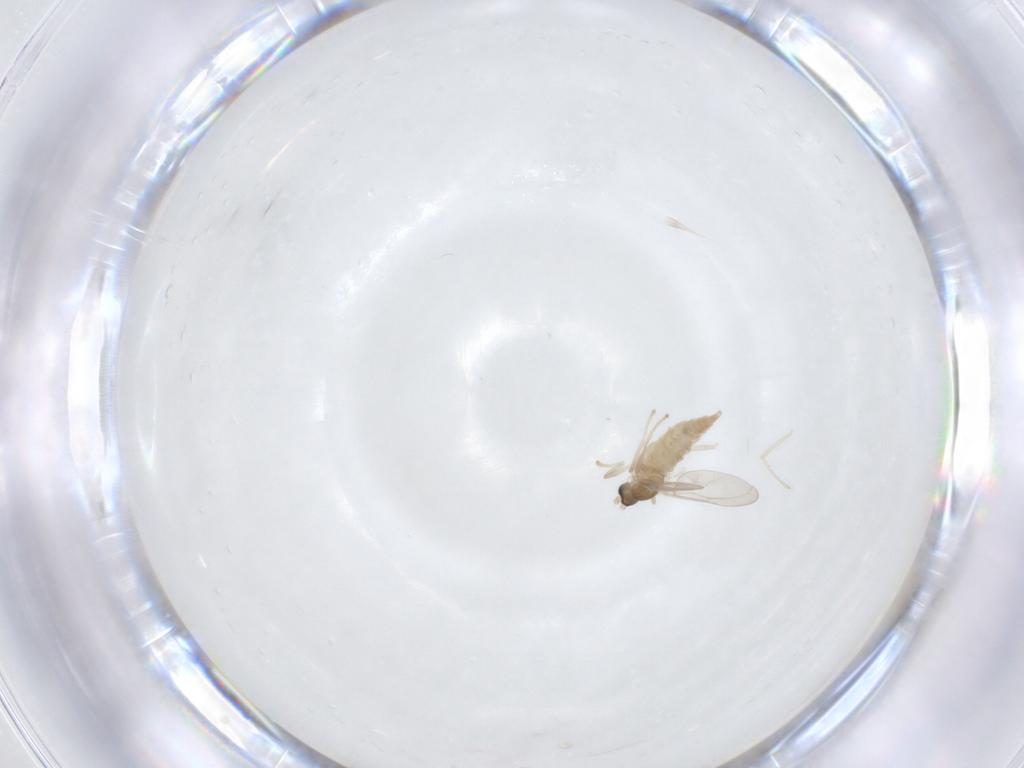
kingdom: Animalia
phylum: Arthropoda
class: Insecta
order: Diptera
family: Cecidomyiidae
